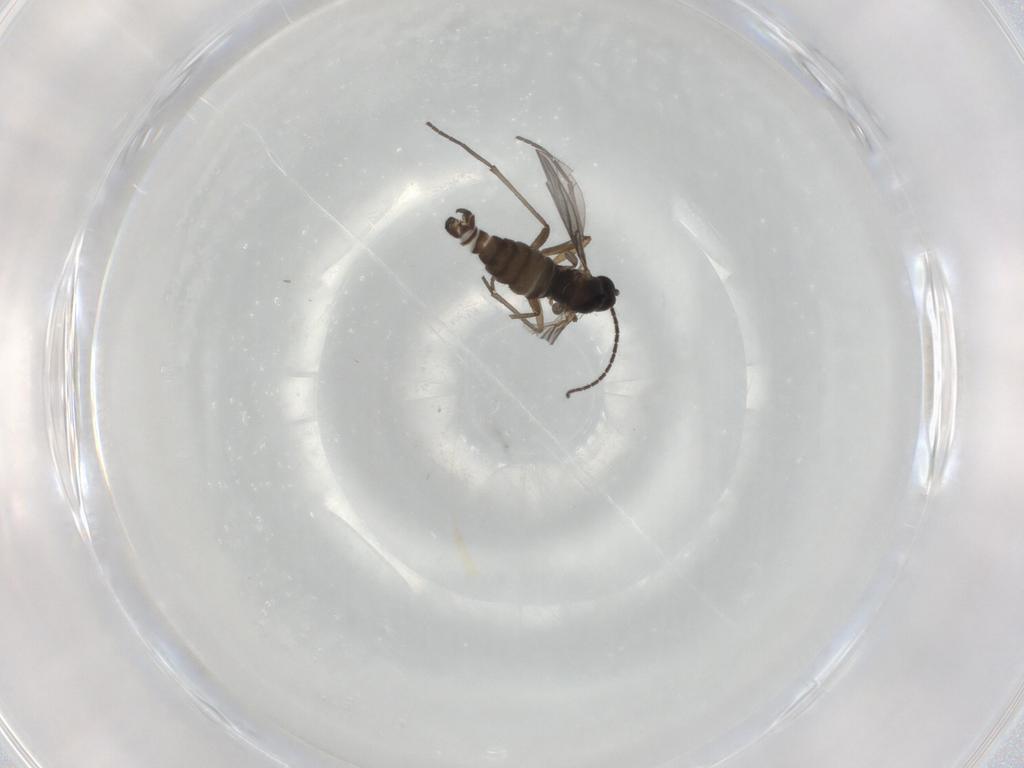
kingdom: Animalia
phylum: Arthropoda
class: Insecta
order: Diptera
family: Sciaridae
